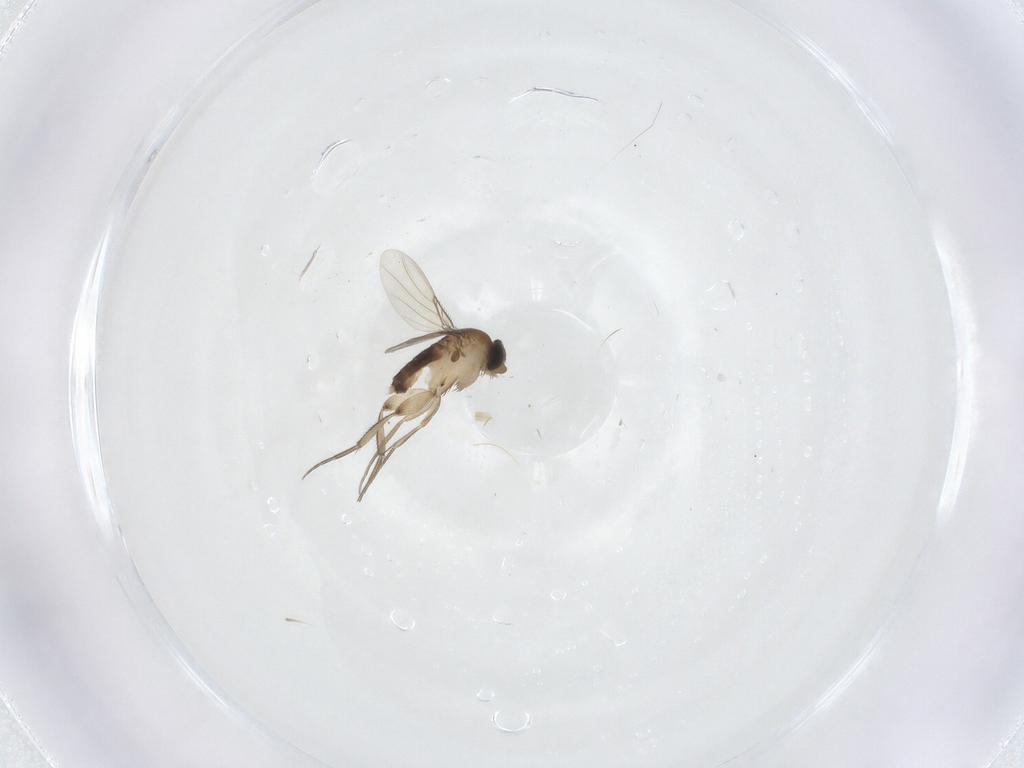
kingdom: Animalia
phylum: Arthropoda
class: Insecta
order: Diptera
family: Phoridae
